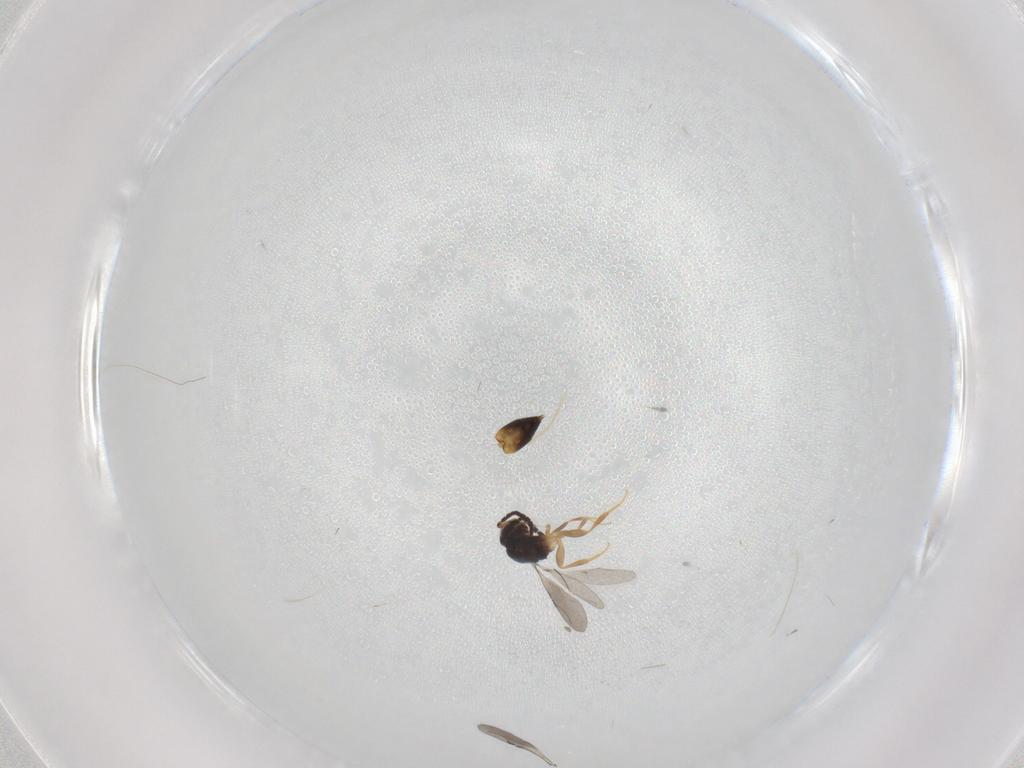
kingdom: Animalia
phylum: Arthropoda
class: Insecta
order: Hymenoptera
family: Ceraphronidae
